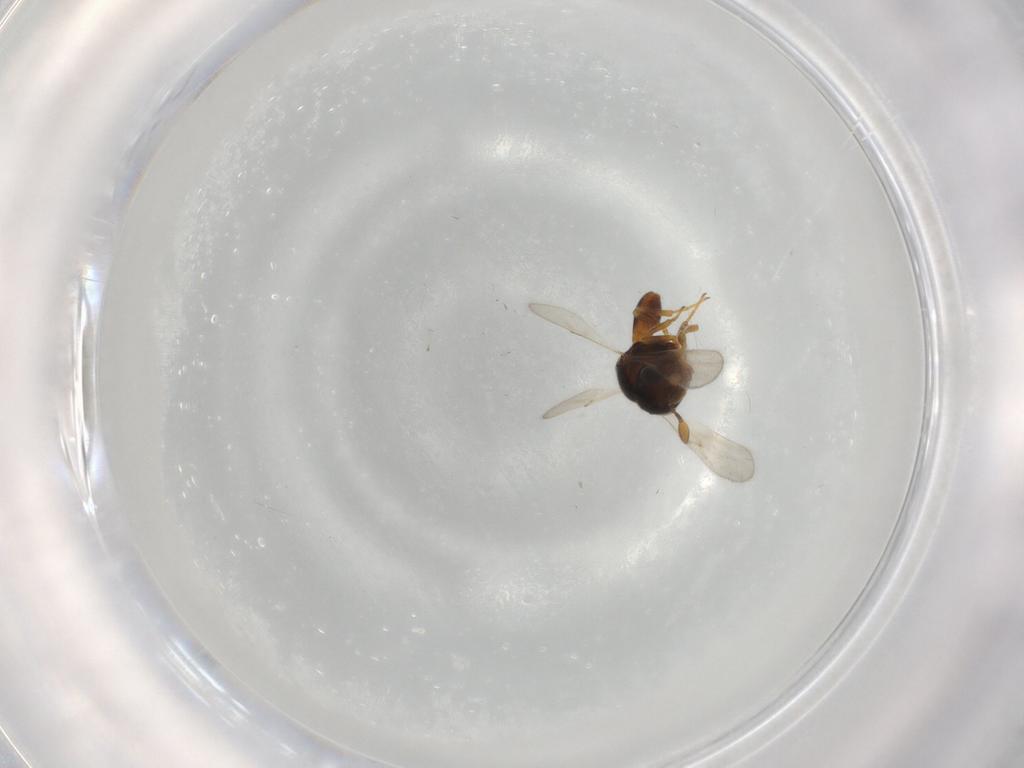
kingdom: Animalia
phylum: Arthropoda
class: Insecta
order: Hymenoptera
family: Scelionidae
